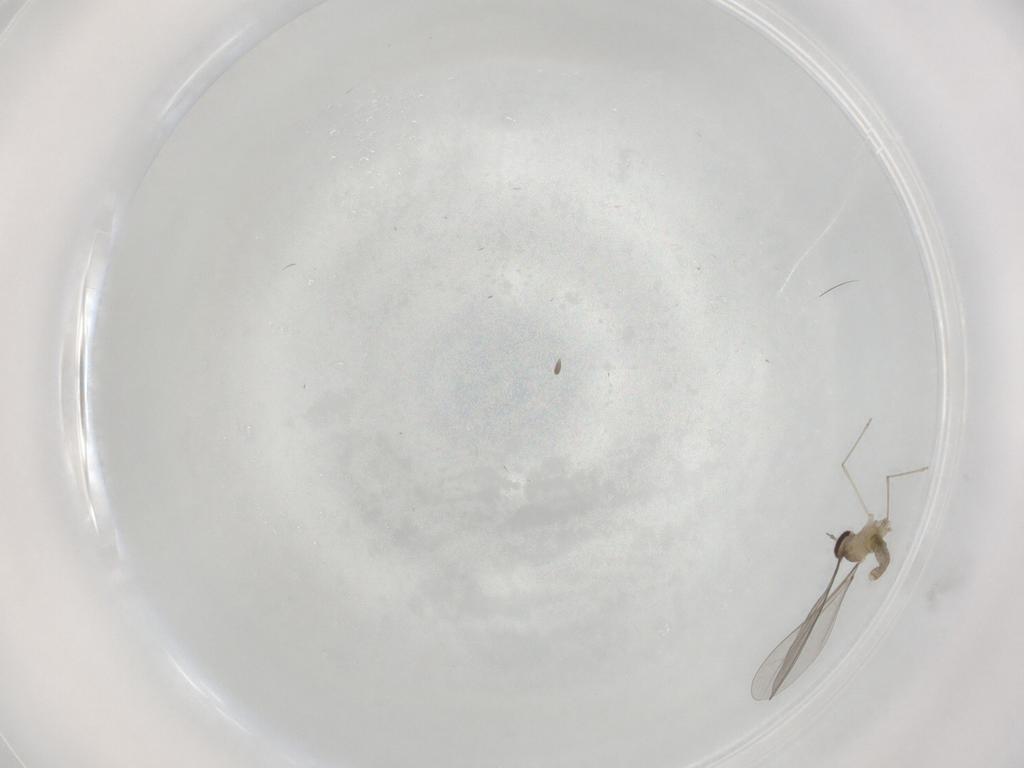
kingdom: Animalia
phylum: Arthropoda
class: Insecta
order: Diptera
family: Cecidomyiidae
